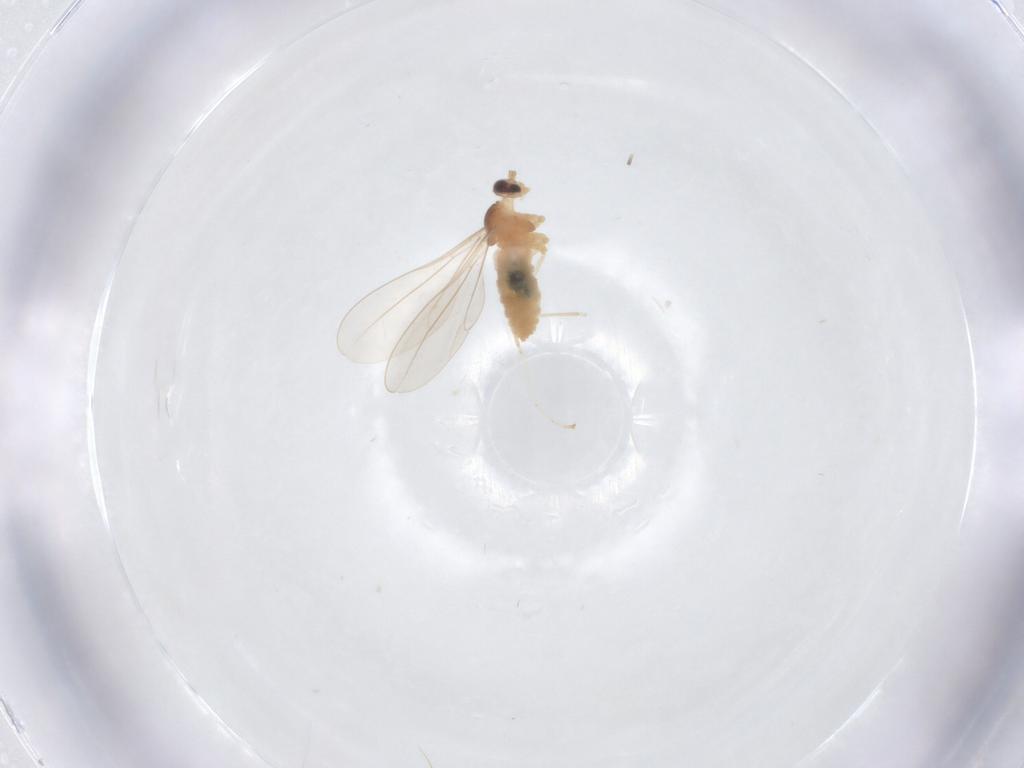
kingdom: Animalia
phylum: Arthropoda
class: Insecta
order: Diptera
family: Cecidomyiidae
